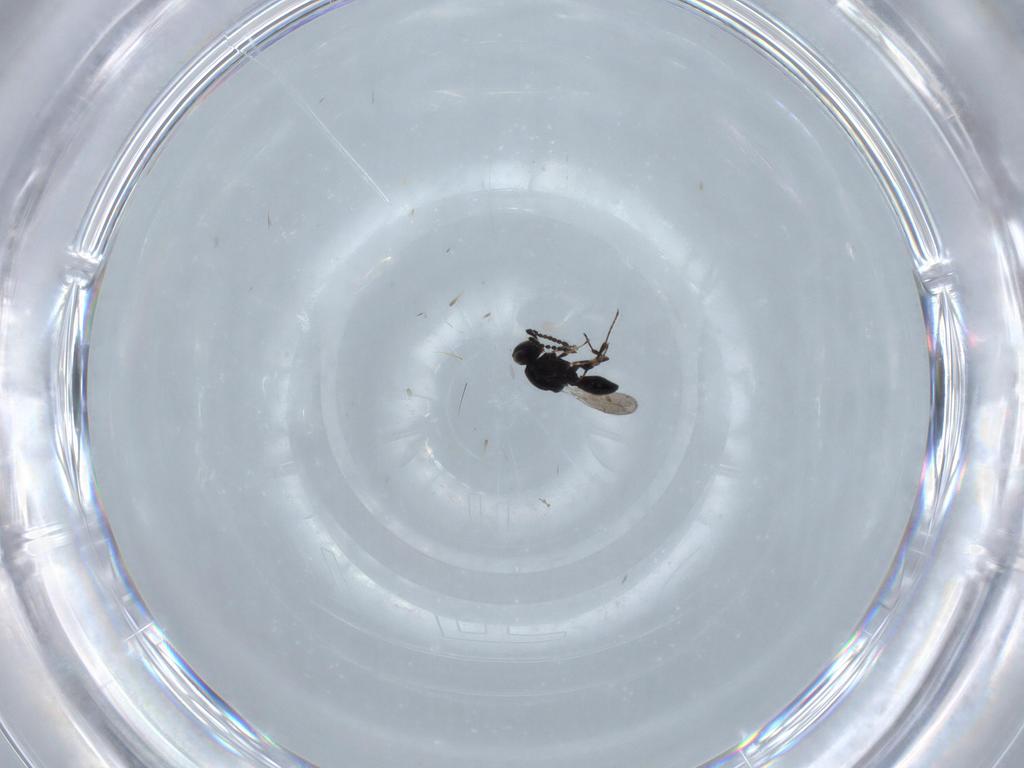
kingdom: Animalia
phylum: Arthropoda
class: Insecta
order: Hymenoptera
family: Platygastridae
